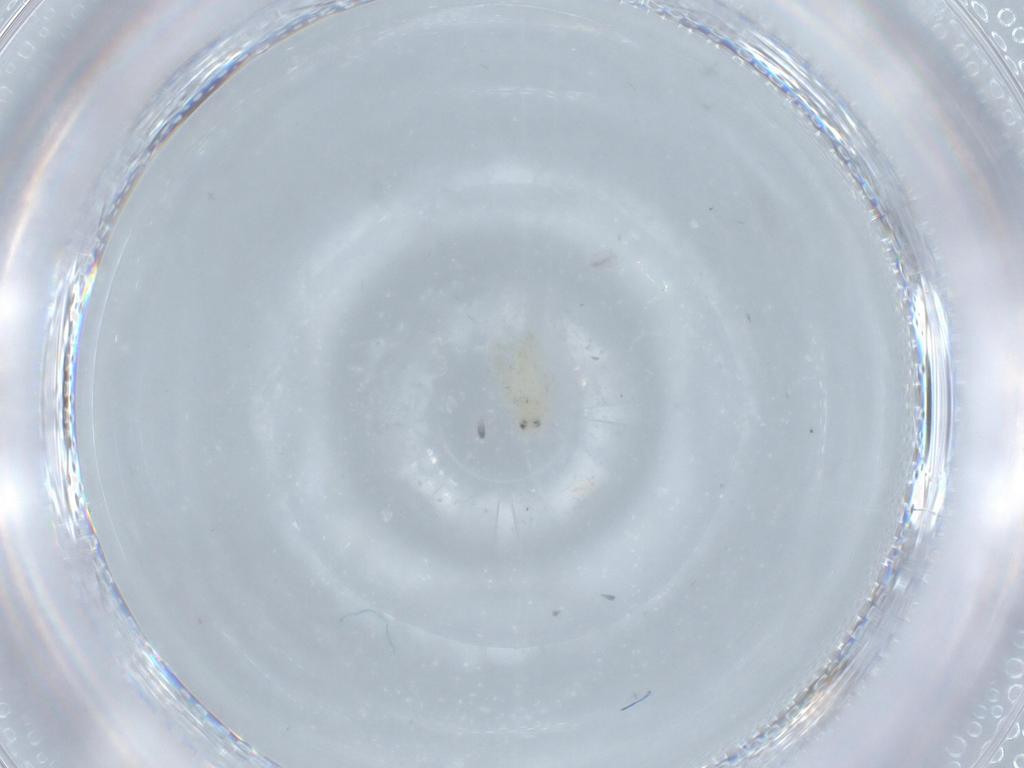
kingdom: Animalia
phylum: Arthropoda
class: Insecta
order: Hemiptera
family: Aleyrodidae
